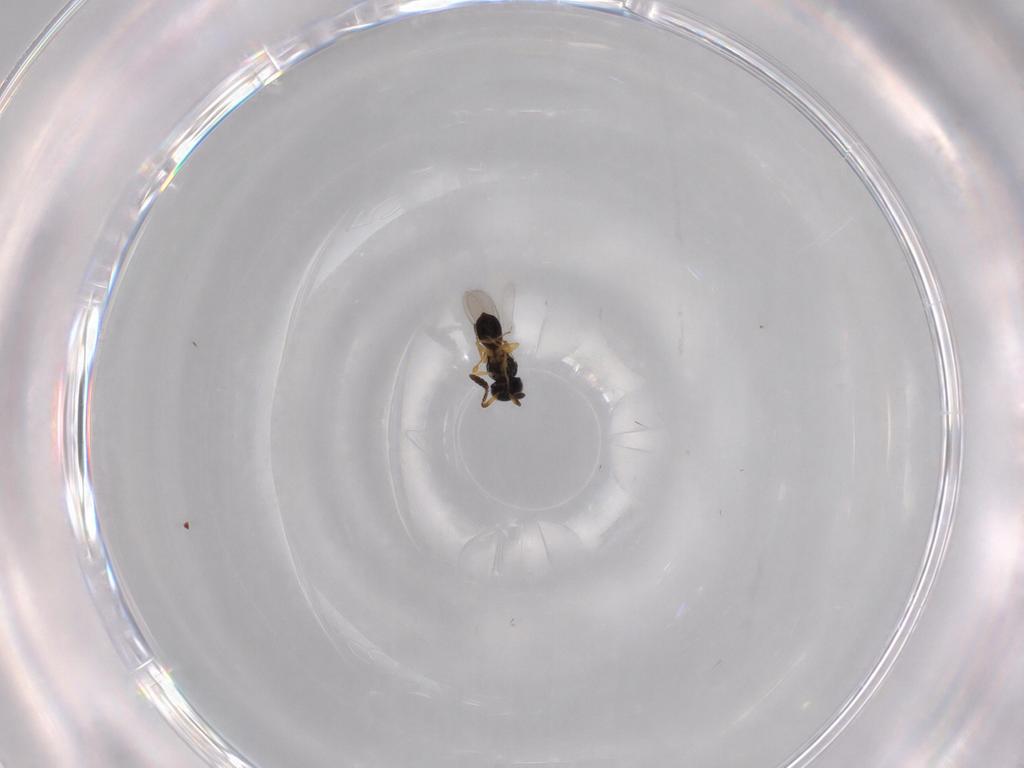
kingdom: Animalia
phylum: Arthropoda
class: Insecta
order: Hymenoptera
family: Scelionidae
